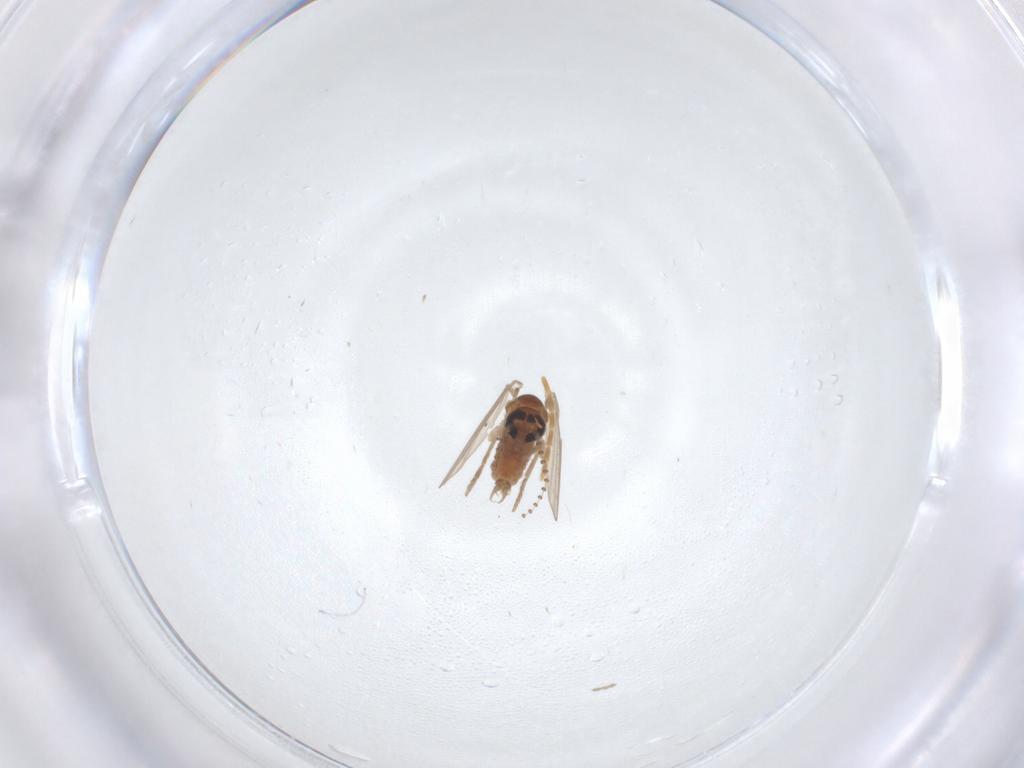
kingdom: Animalia
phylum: Arthropoda
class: Insecta
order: Diptera
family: Psychodidae
